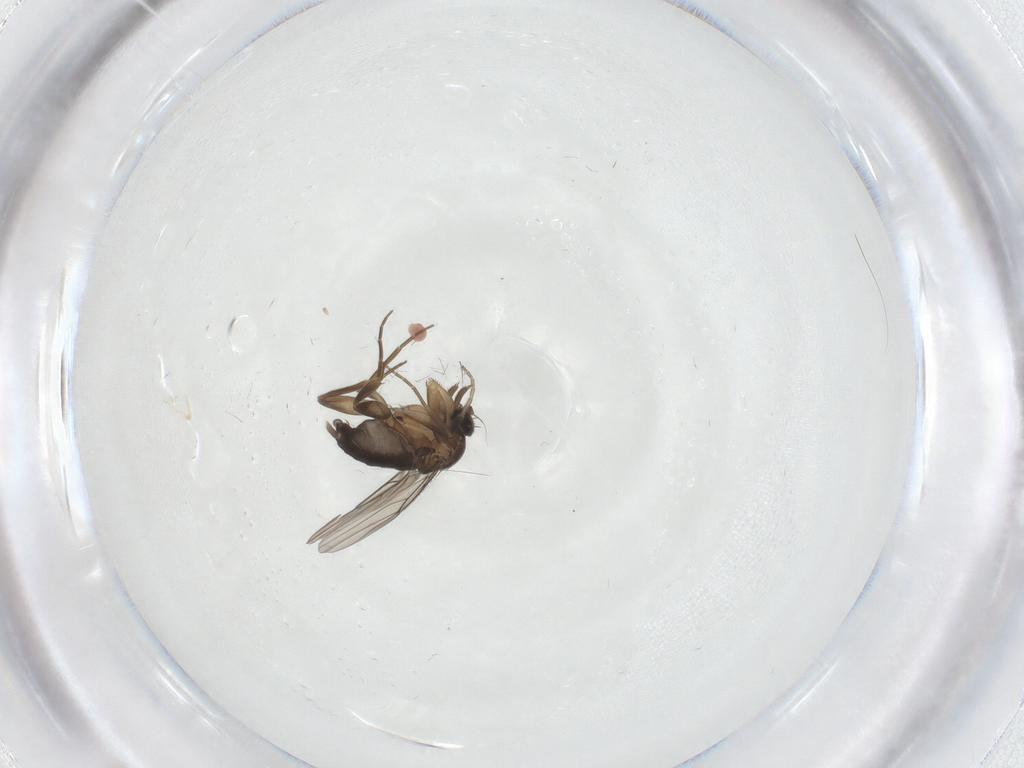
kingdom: Animalia
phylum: Arthropoda
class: Insecta
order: Diptera
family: Phoridae
